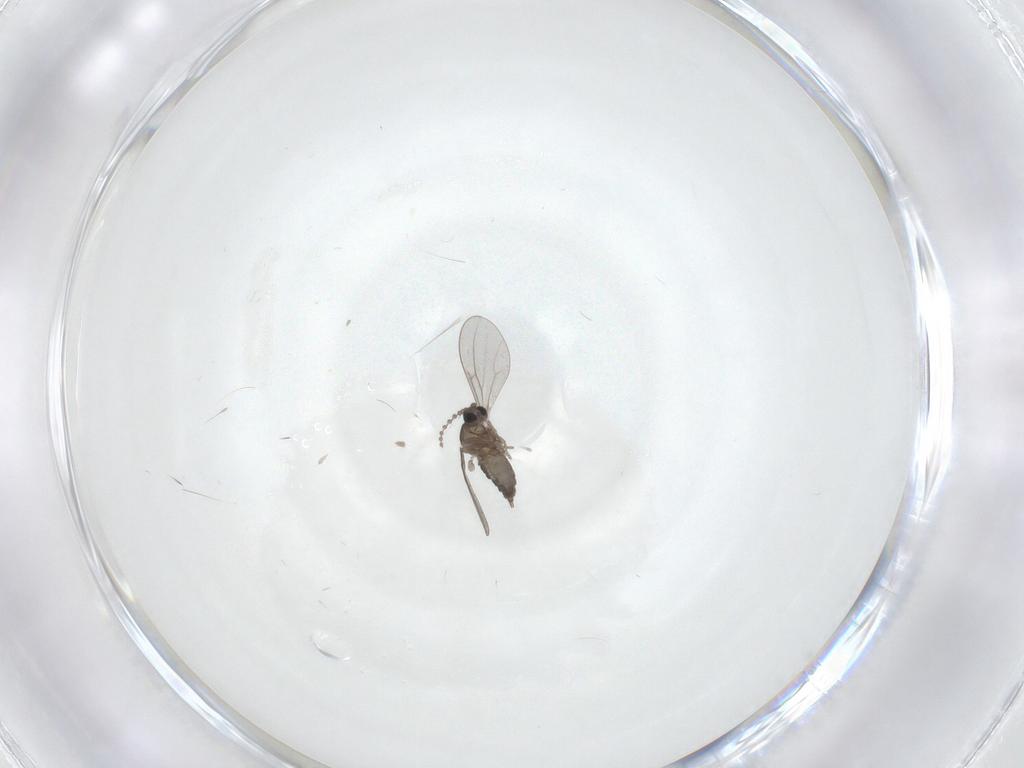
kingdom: Animalia
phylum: Arthropoda
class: Insecta
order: Diptera
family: Cecidomyiidae
